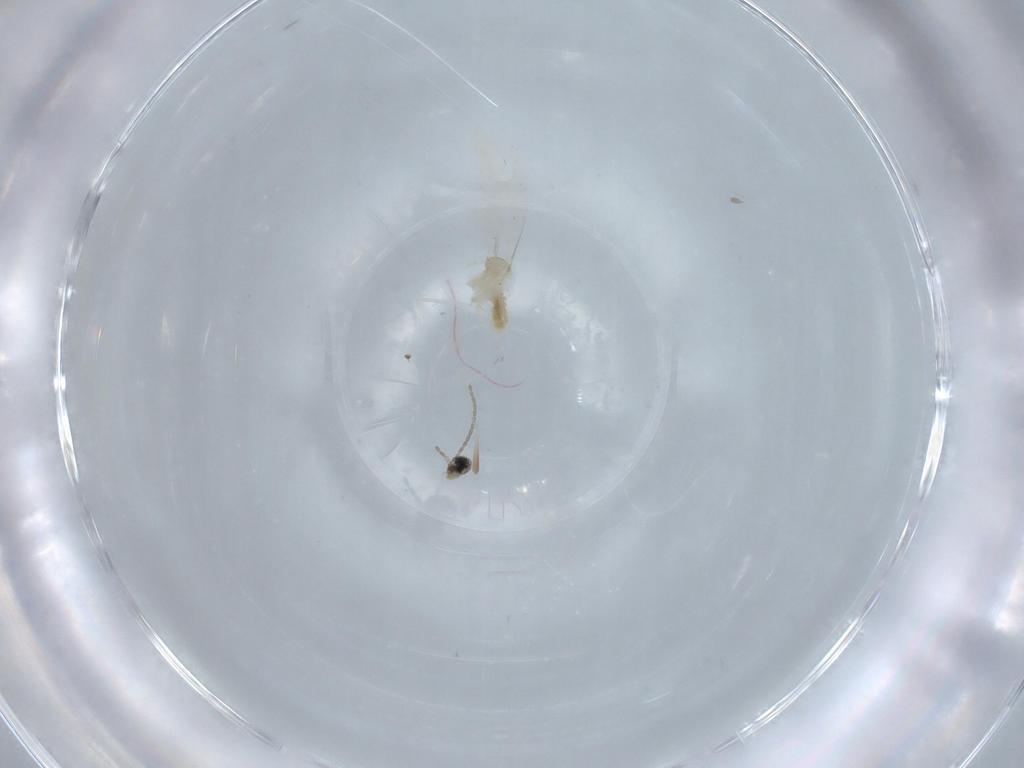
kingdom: Animalia
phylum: Arthropoda
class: Insecta
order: Diptera
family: Cecidomyiidae
